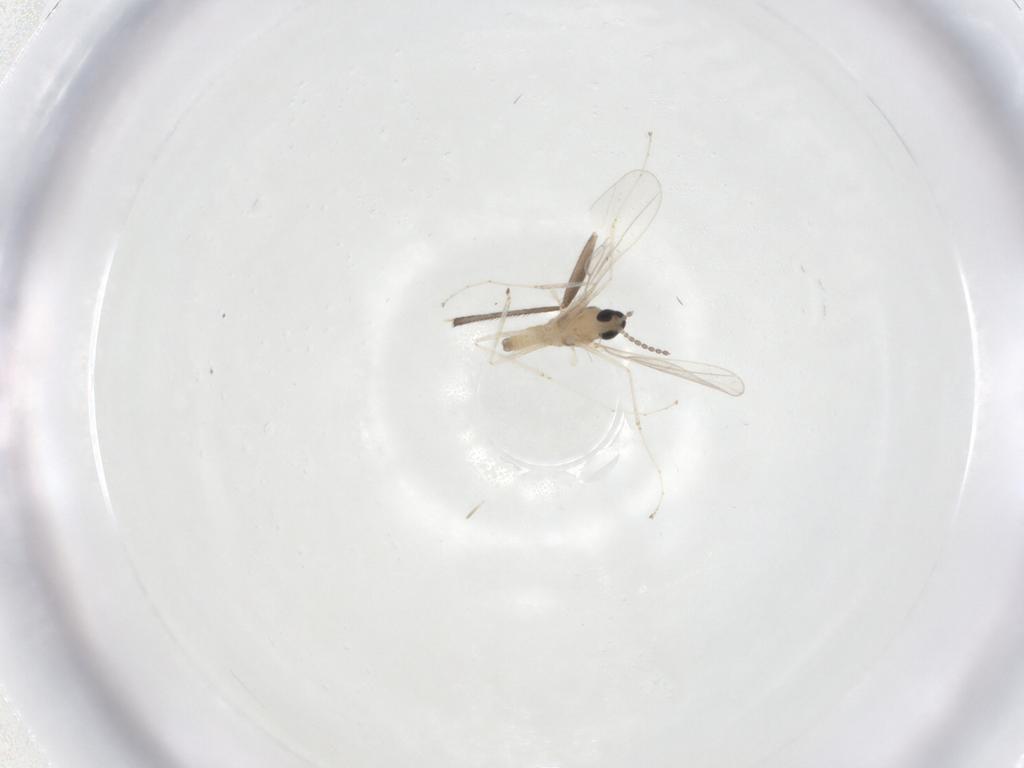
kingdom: Animalia
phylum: Arthropoda
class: Insecta
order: Diptera
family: Cecidomyiidae
